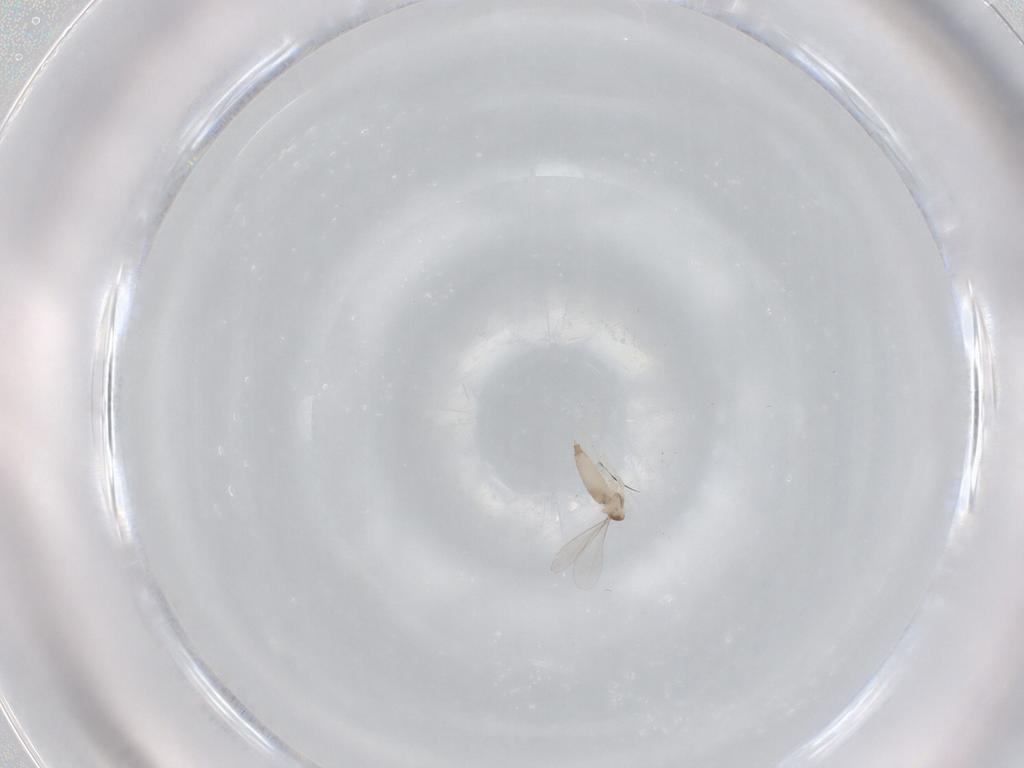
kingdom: Animalia
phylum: Arthropoda
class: Insecta
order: Diptera
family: Cecidomyiidae
